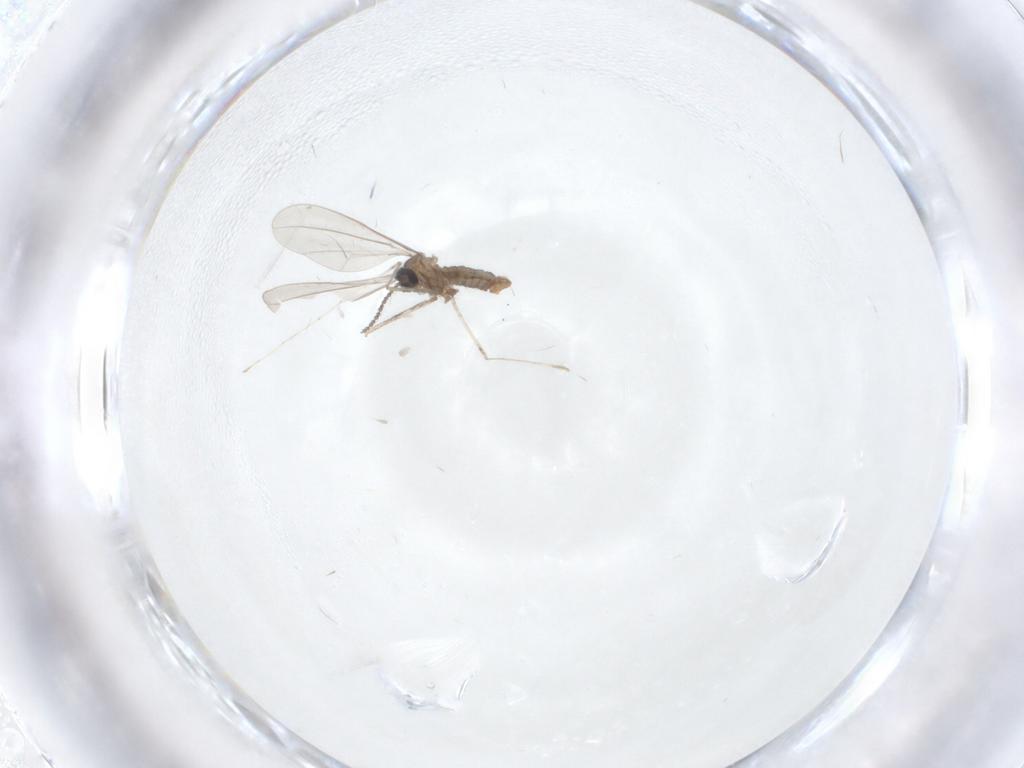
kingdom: Animalia
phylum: Arthropoda
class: Insecta
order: Diptera
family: Cecidomyiidae
